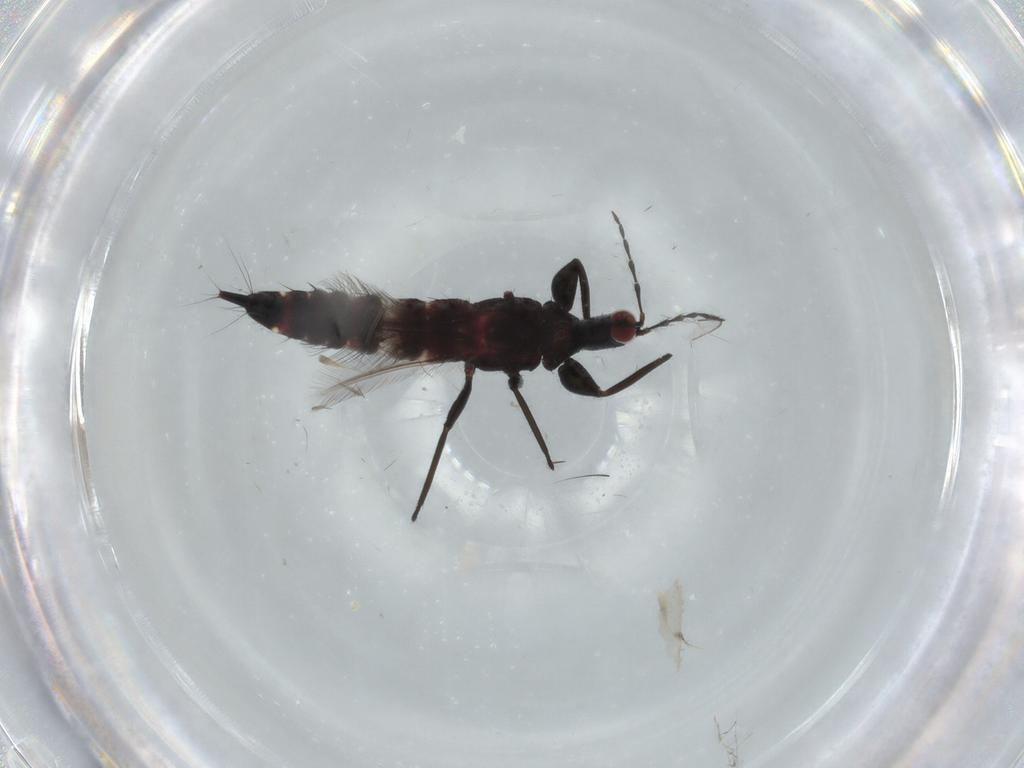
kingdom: Animalia
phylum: Arthropoda
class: Insecta
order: Thysanoptera
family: Phlaeothripidae
